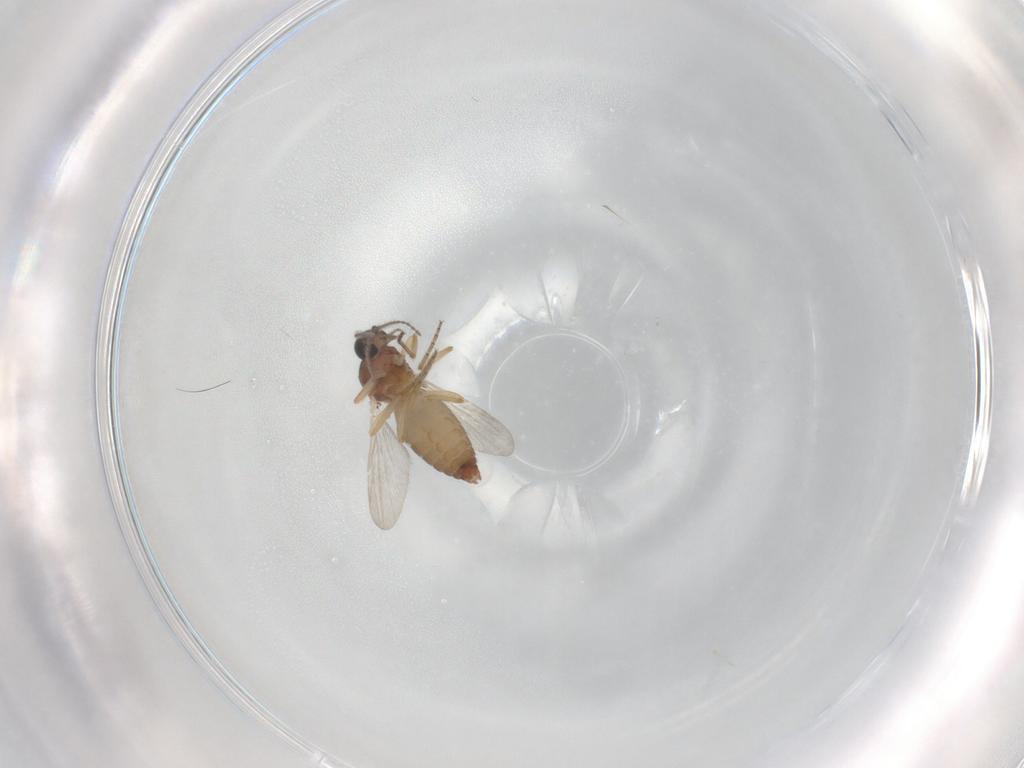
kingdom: Animalia
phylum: Arthropoda
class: Insecta
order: Diptera
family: Ceratopogonidae
